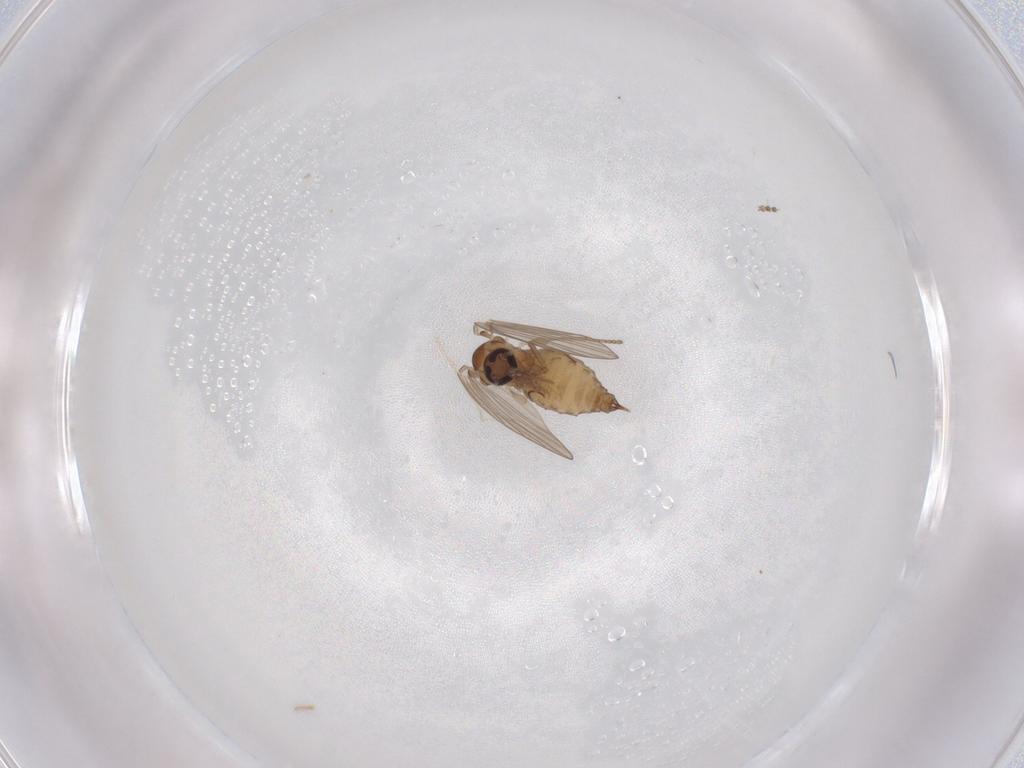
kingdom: Animalia
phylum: Arthropoda
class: Insecta
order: Diptera
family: Psychodidae
